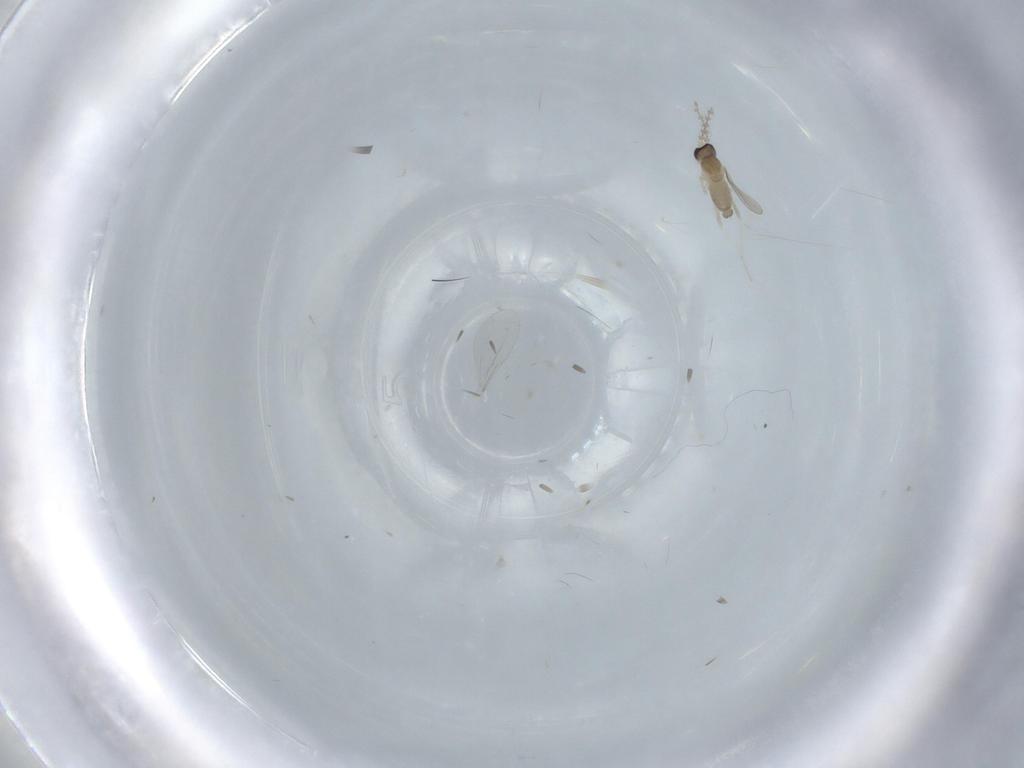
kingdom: Animalia
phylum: Arthropoda
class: Insecta
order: Diptera
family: Cecidomyiidae
